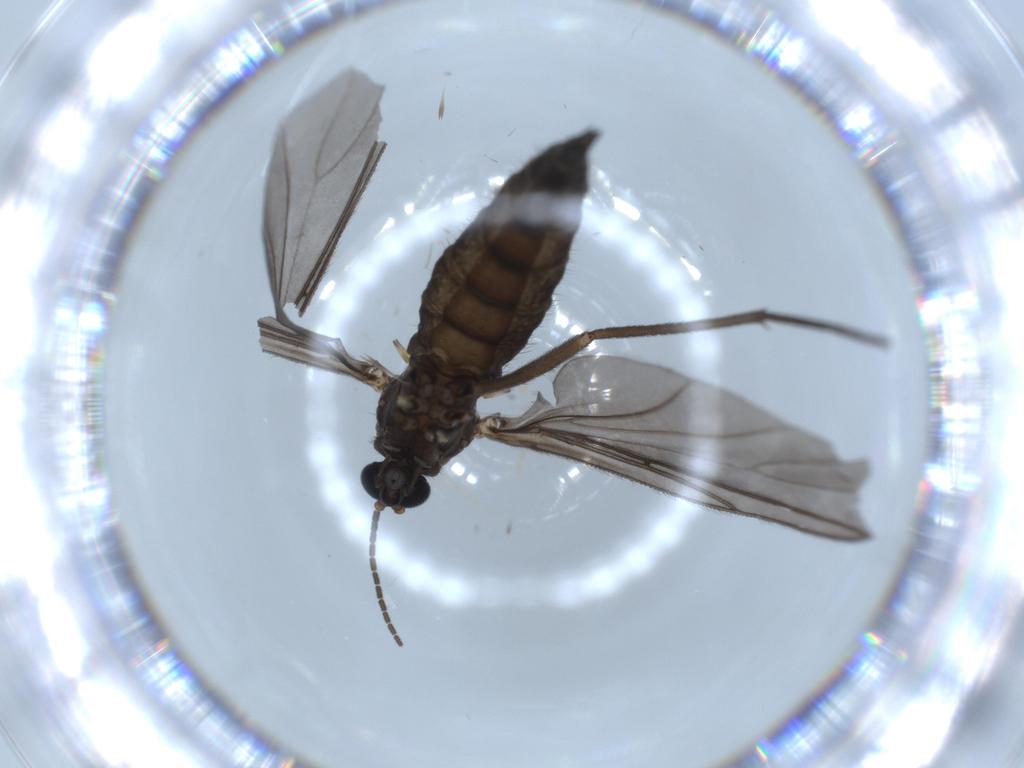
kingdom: Animalia
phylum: Arthropoda
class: Insecta
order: Diptera
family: Sciaridae
